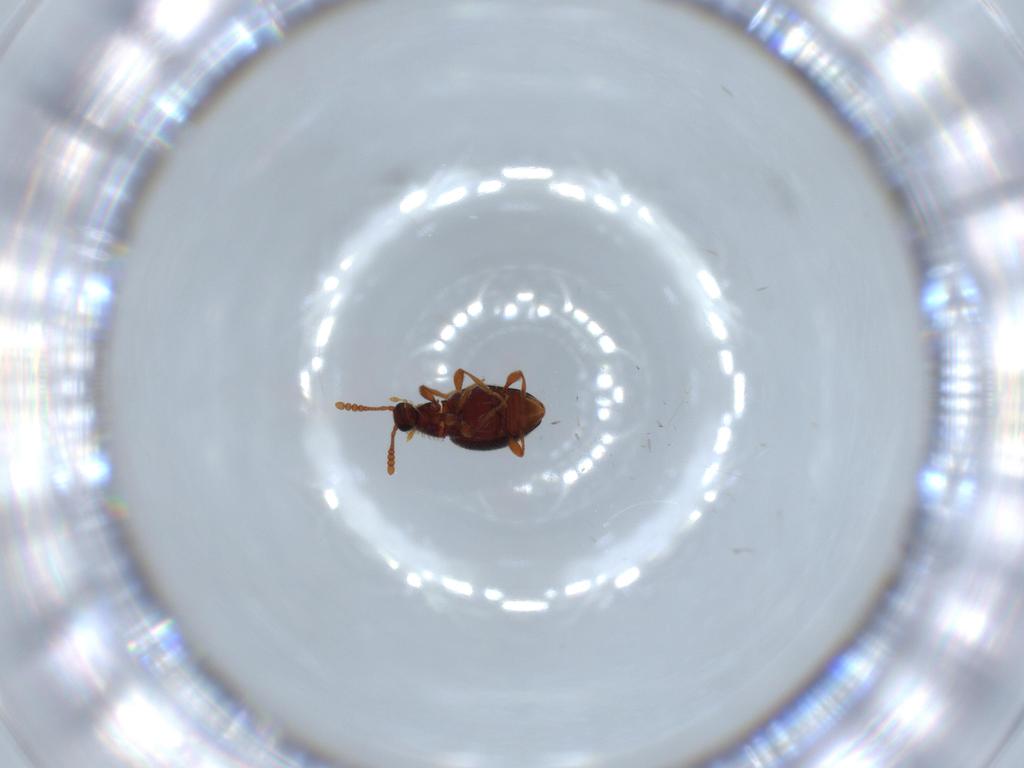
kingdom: Animalia
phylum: Arthropoda
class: Insecta
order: Coleoptera
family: Staphylinidae
